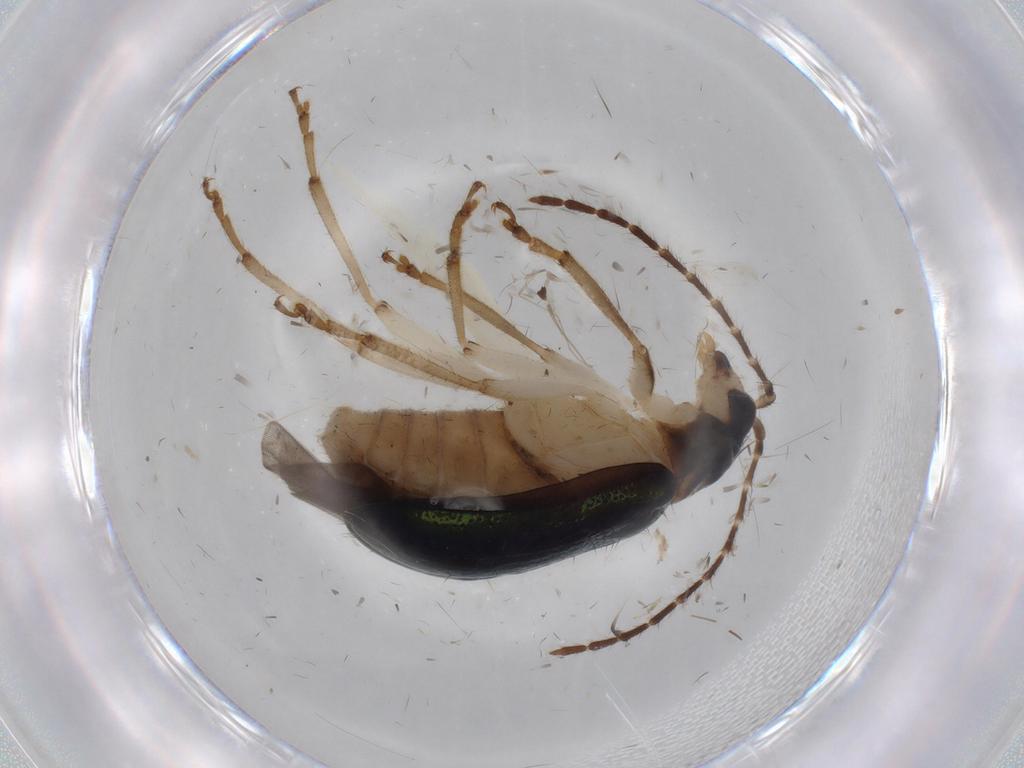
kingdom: Animalia
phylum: Arthropoda
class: Insecta
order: Coleoptera
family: Chrysomelidae
